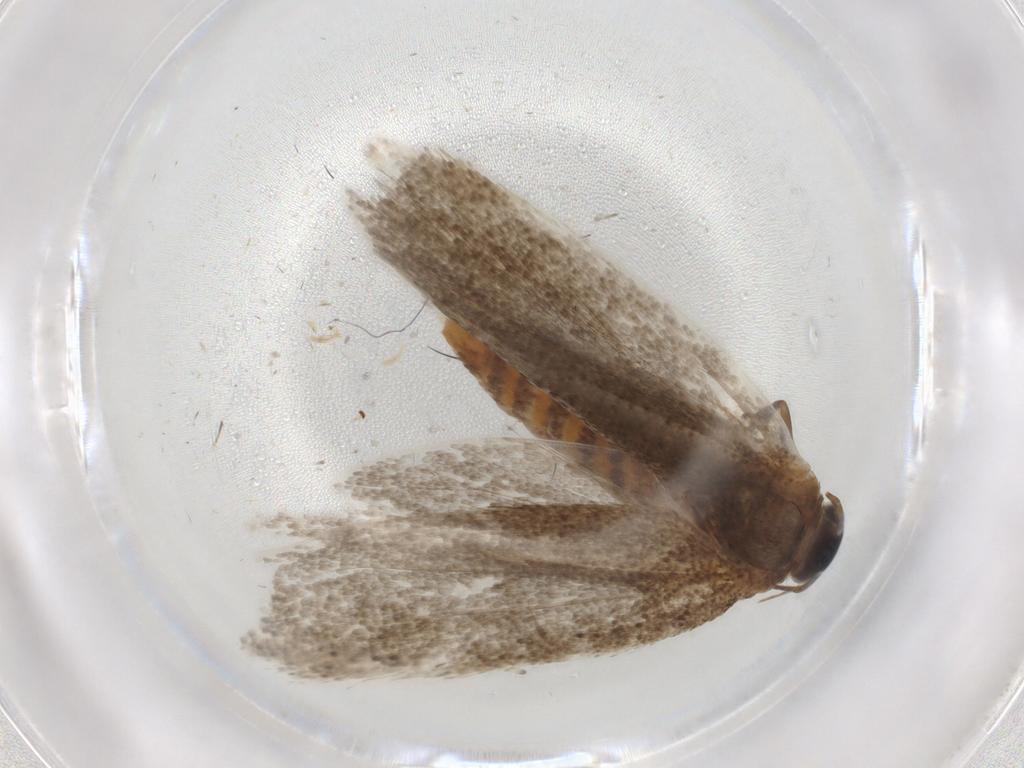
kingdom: Animalia
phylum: Arthropoda
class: Insecta
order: Lepidoptera
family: Oecophoridae
